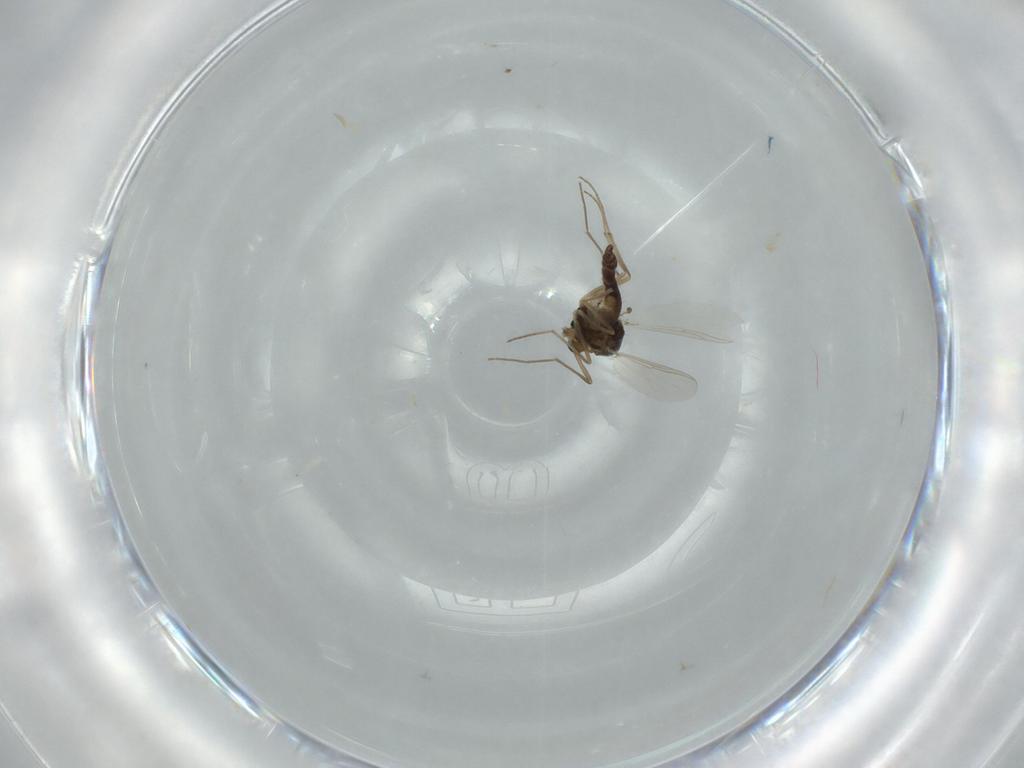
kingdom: Animalia
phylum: Arthropoda
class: Insecta
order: Diptera
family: Chironomidae
